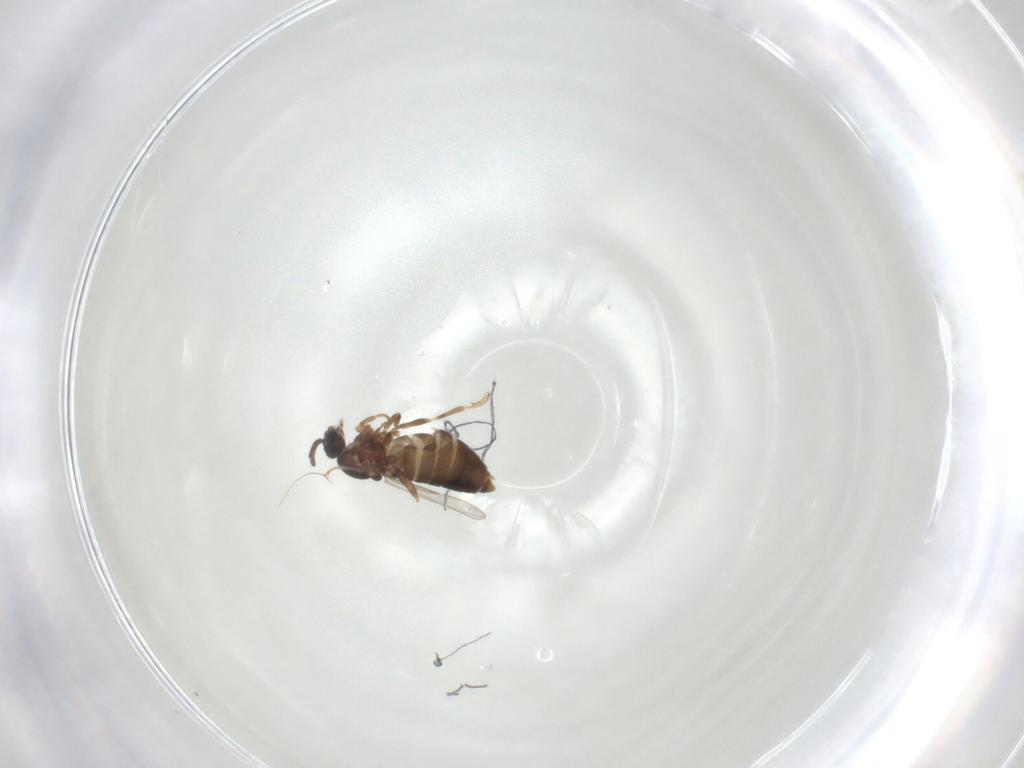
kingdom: Animalia
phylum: Arthropoda
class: Insecta
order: Diptera
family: Scatopsidae
